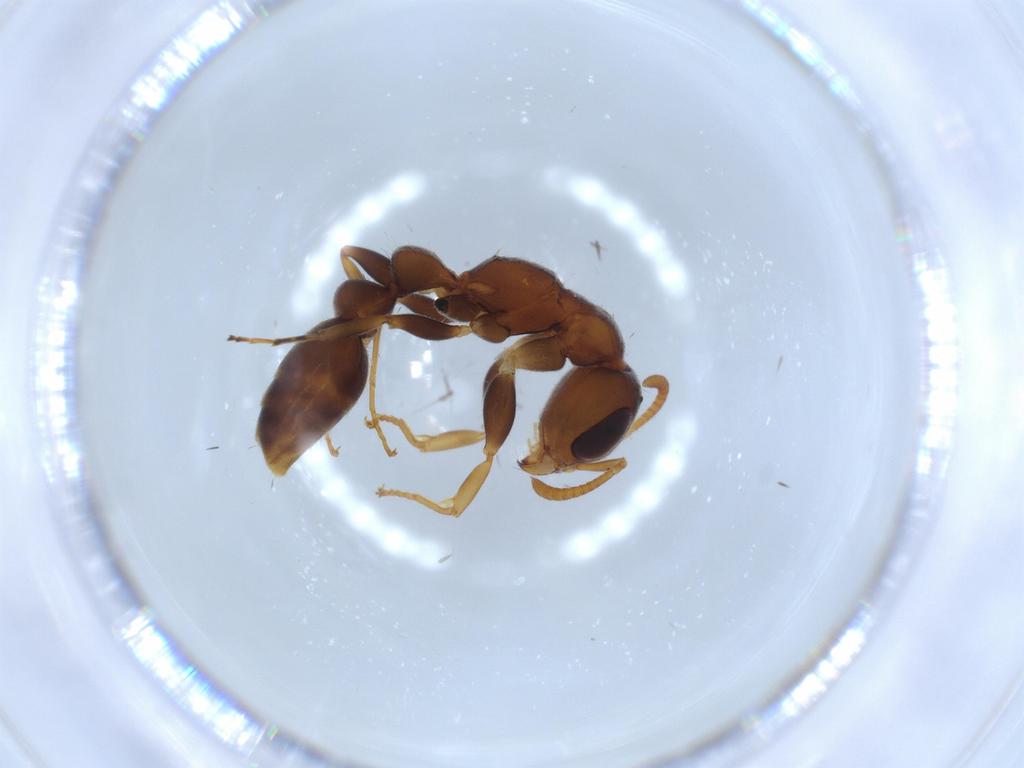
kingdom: Animalia
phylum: Arthropoda
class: Insecta
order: Hymenoptera
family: Formicidae
